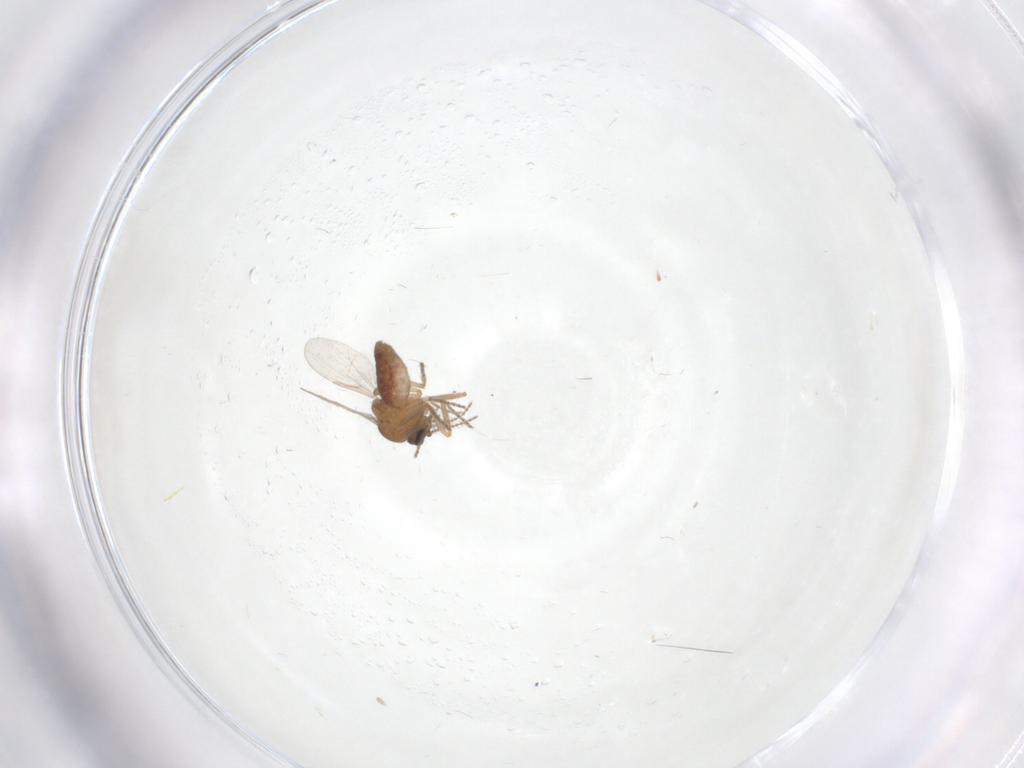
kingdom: Animalia
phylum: Arthropoda
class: Insecta
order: Diptera
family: Ceratopogonidae
